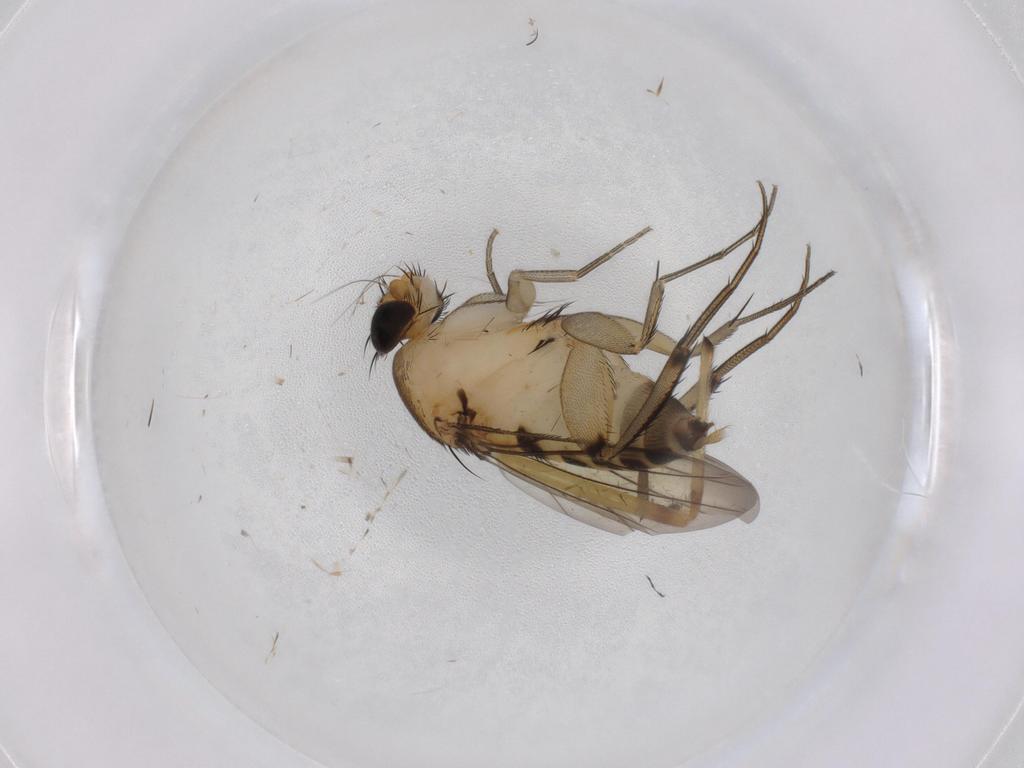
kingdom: Animalia
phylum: Arthropoda
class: Insecta
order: Diptera
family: Phoridae
